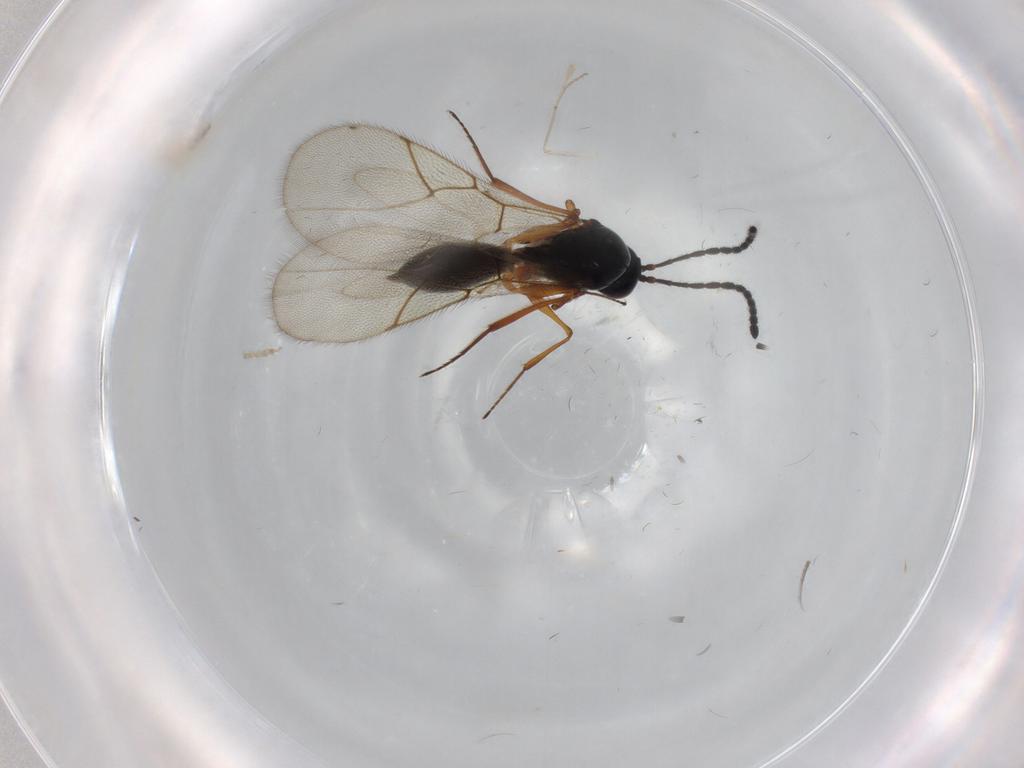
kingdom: Animalia
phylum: Arthropoda
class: Insecta
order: Hymenoptera
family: Figitidae
